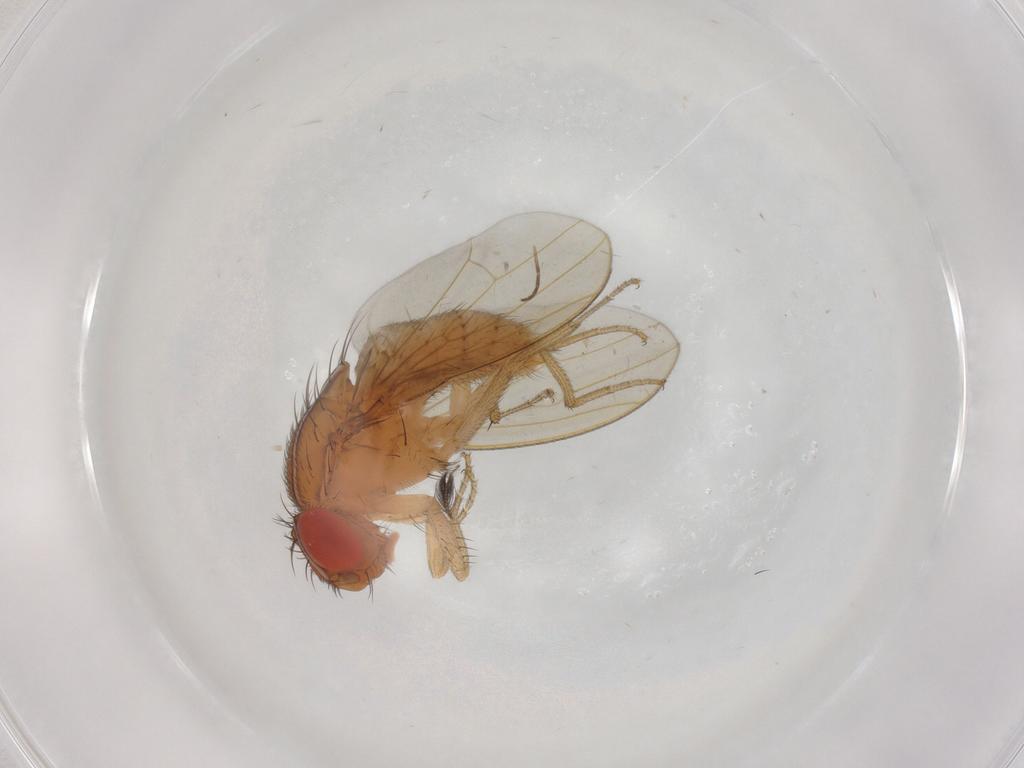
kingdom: Animalia
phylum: Arthropoda
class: Insecta
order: Diptera
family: Drosophilidae
